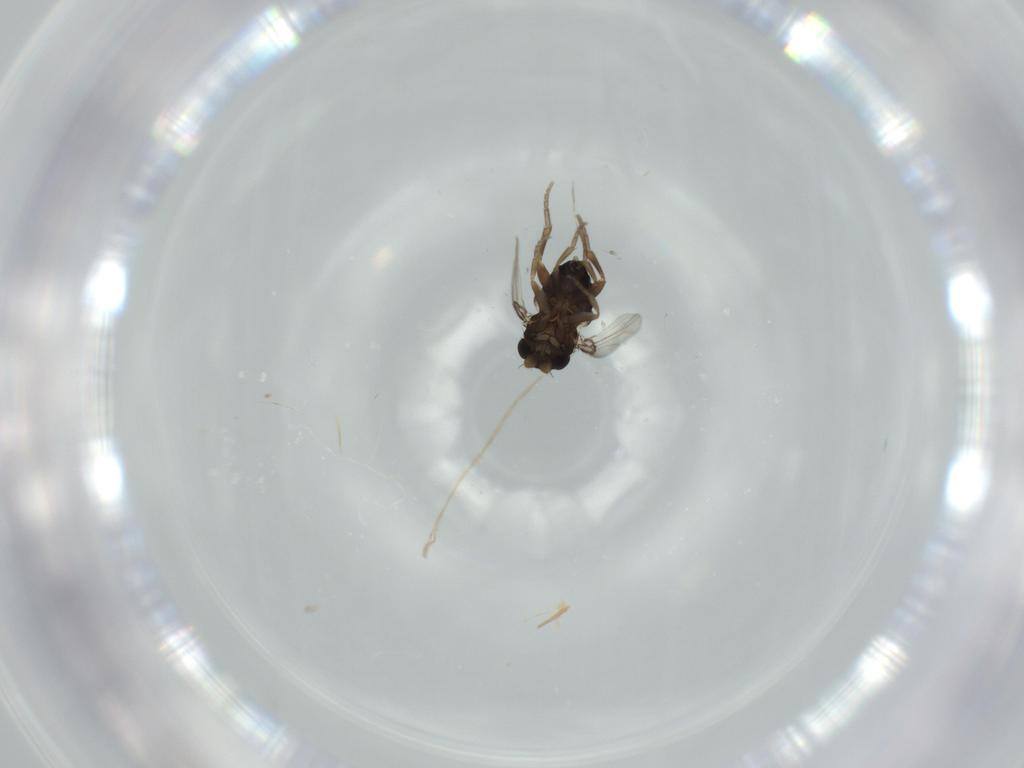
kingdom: Animalia
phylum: Arthropoda
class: Insecta
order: Diptera
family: Phoridae
